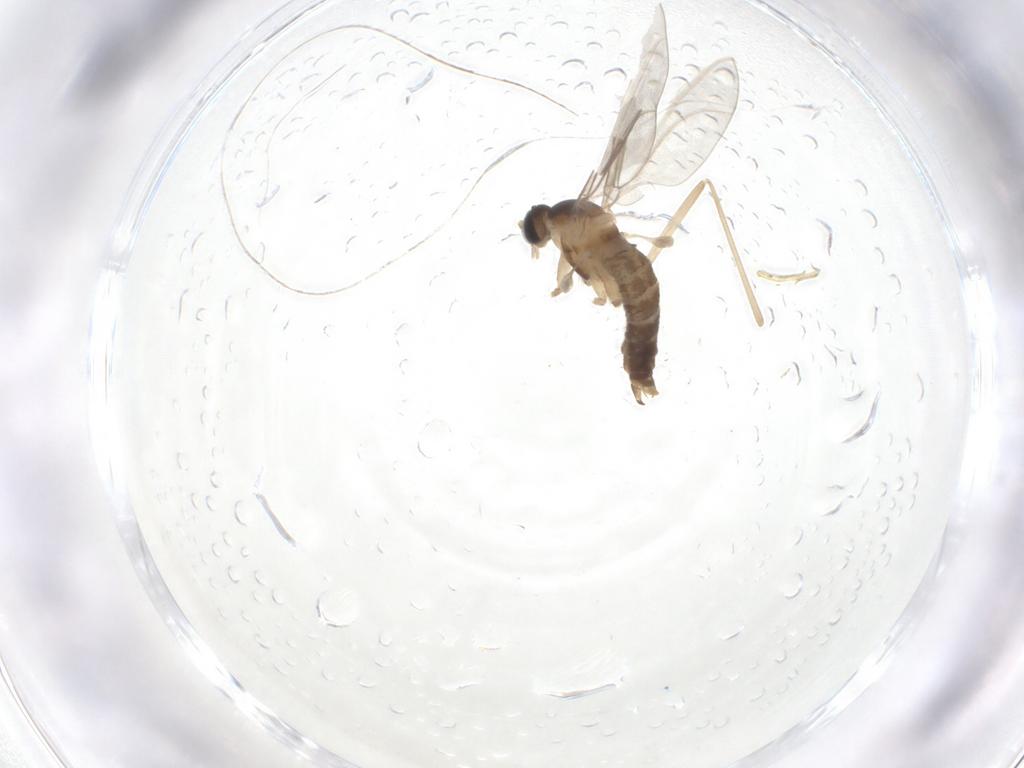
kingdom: Animalia
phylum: Arthropoda
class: Insecta
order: Diptera
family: Cecidomyiidae
